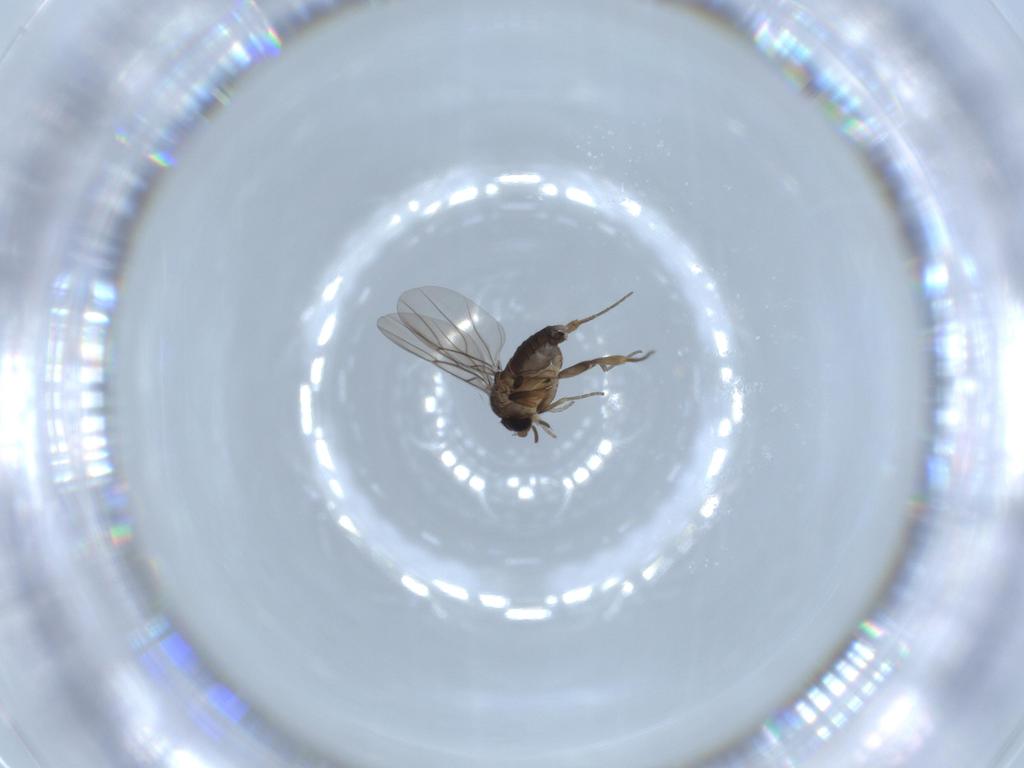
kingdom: Animalia
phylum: Arthropoda
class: Insecta
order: Diptera
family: Phoridae
